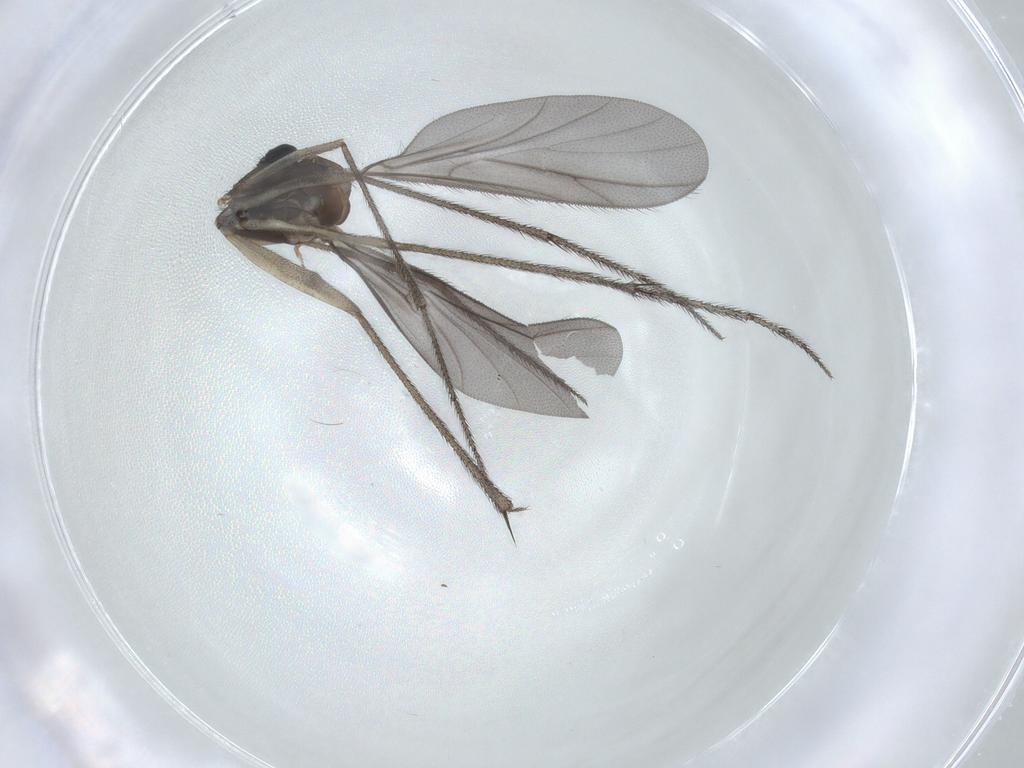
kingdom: Animalia
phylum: Arthropoda
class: Insecta
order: Diptera
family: Ditomyiidae
